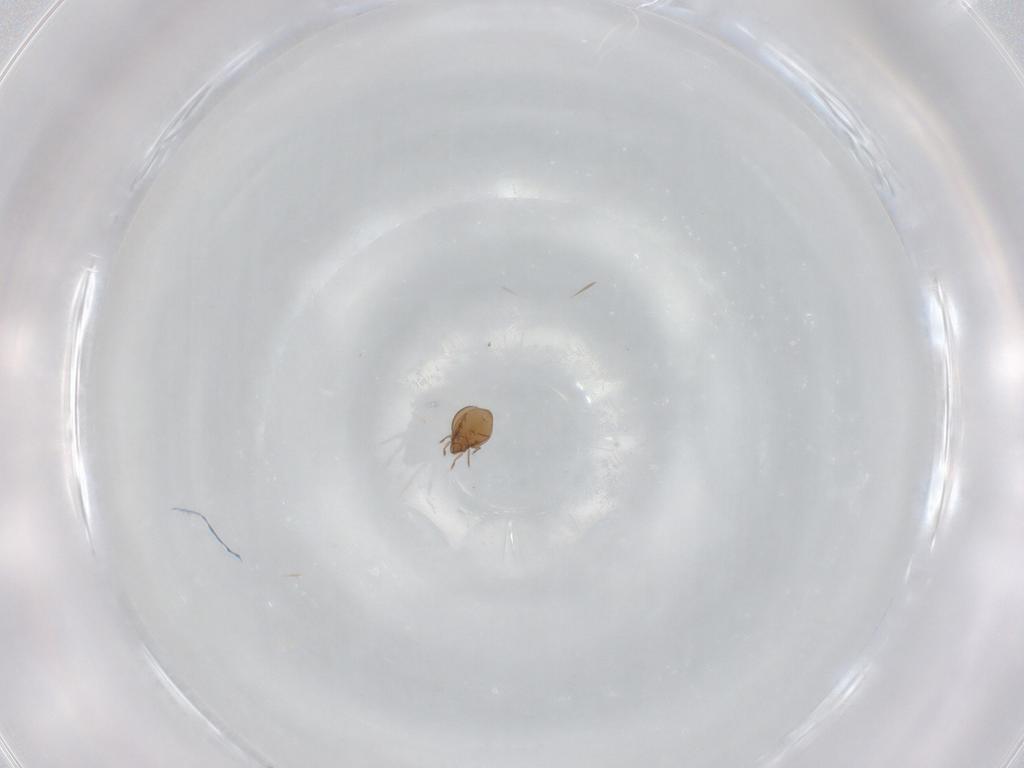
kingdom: Animalia
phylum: Arthropoda
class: Arachnida
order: Sarcoptiformes
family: Oribatulidae
